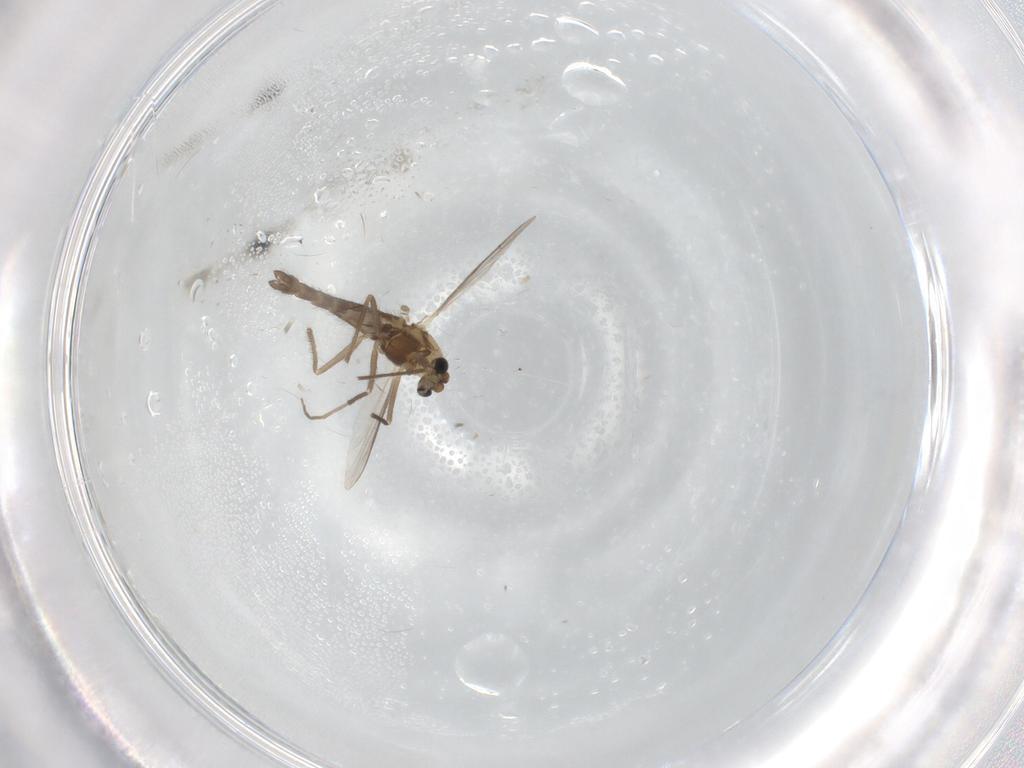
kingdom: Animalia
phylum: Arthropoda
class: Insecta
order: Diptera
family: Chironomidae
